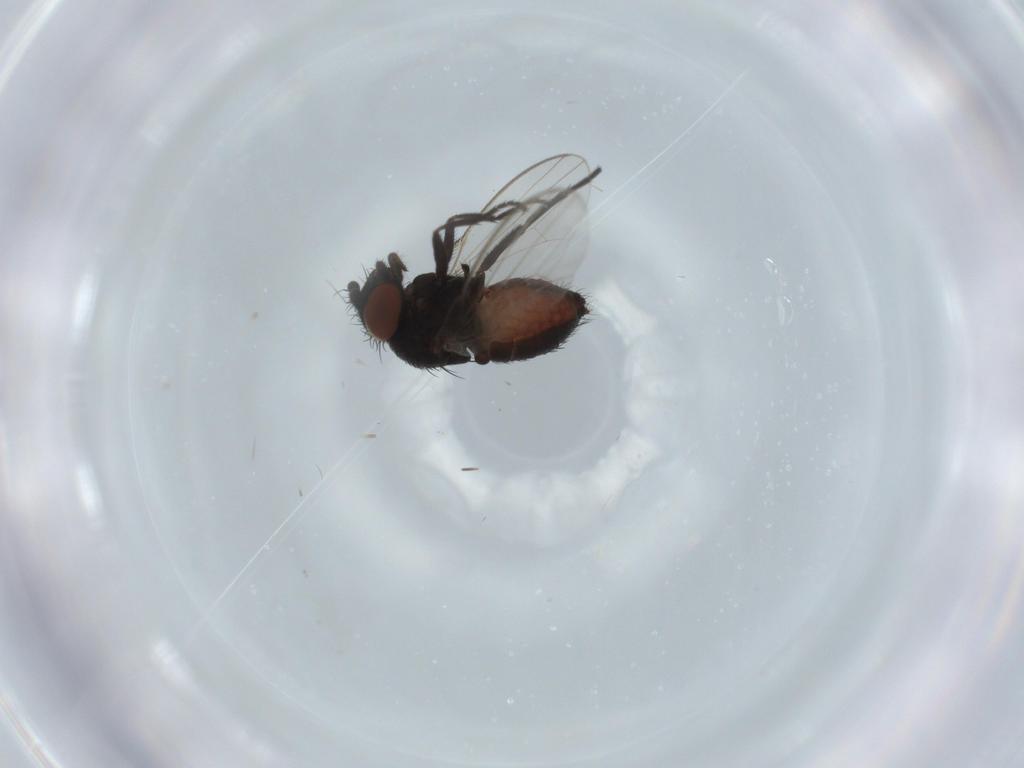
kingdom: Animalia
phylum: Arthropoda
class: Insecta
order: Diptera
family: Milichiidae
